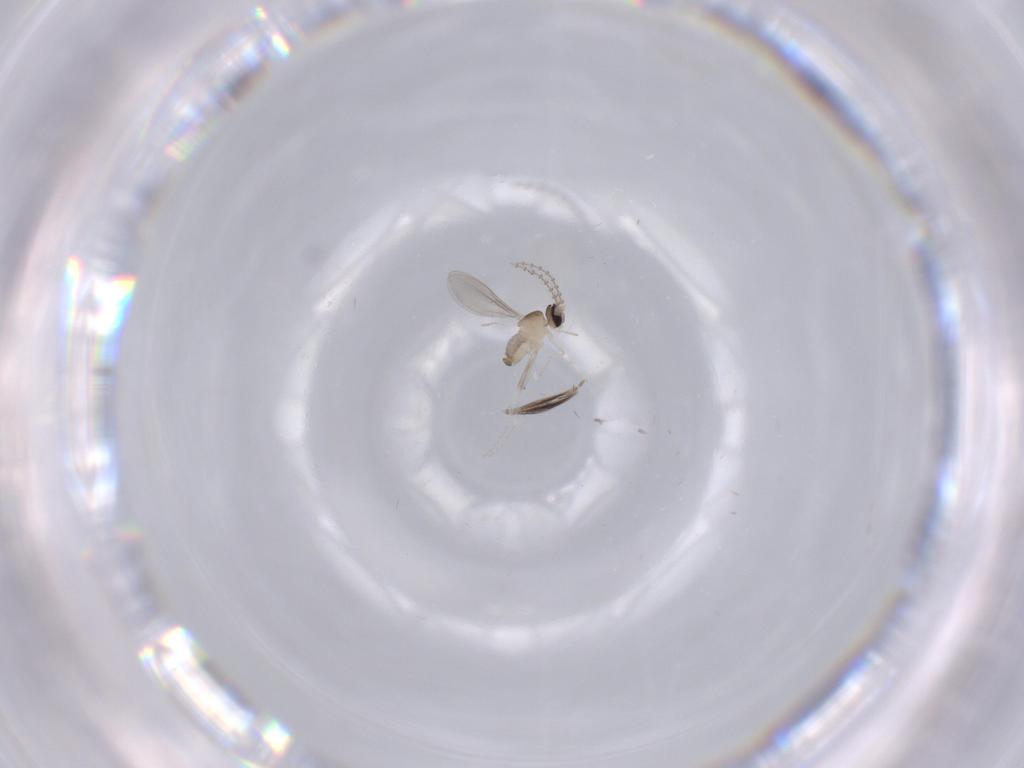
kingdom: Animalia
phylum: Arthropoda
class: Insecta
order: Diptera
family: Cecidomyiidae
